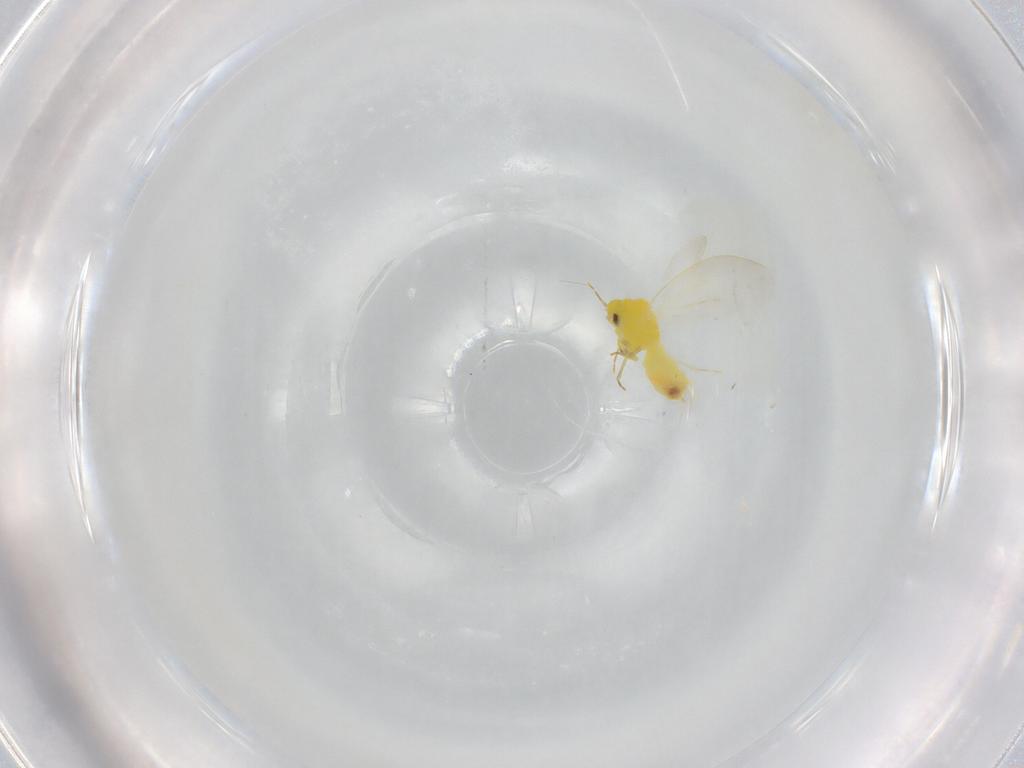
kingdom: Animalia
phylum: Arthropoda
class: Insecta
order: Hemiptera
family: Aleyrodidae
